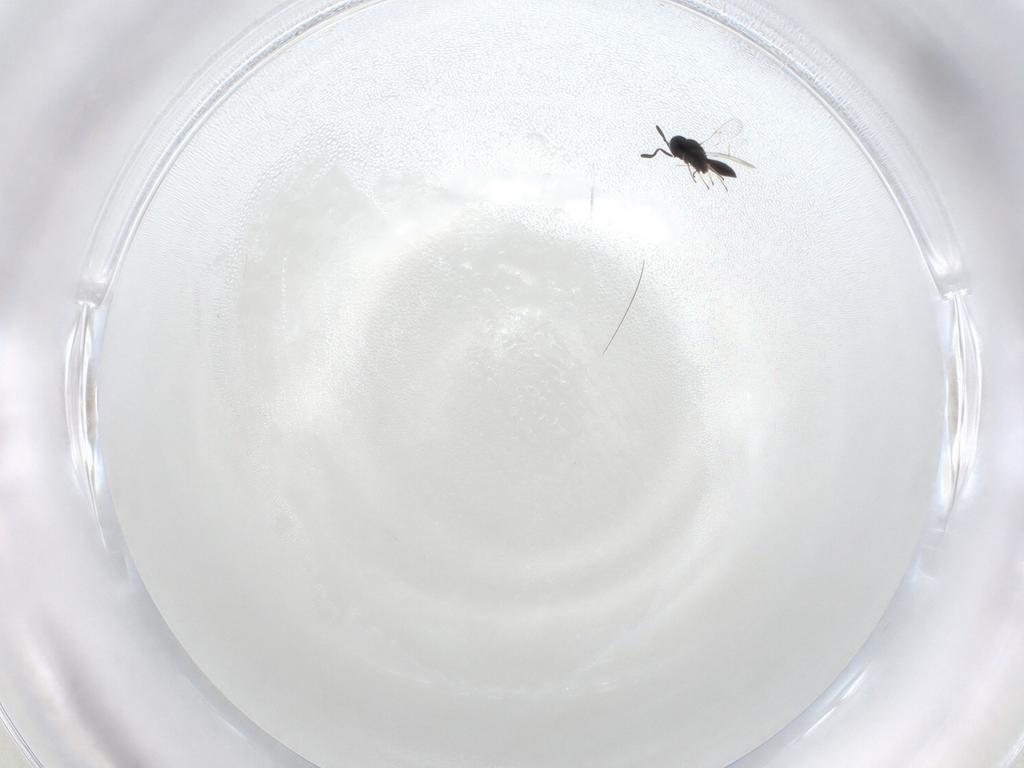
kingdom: Animalia
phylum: Arthropoda
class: Insecta
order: Hymenoptera
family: Scelionidae
